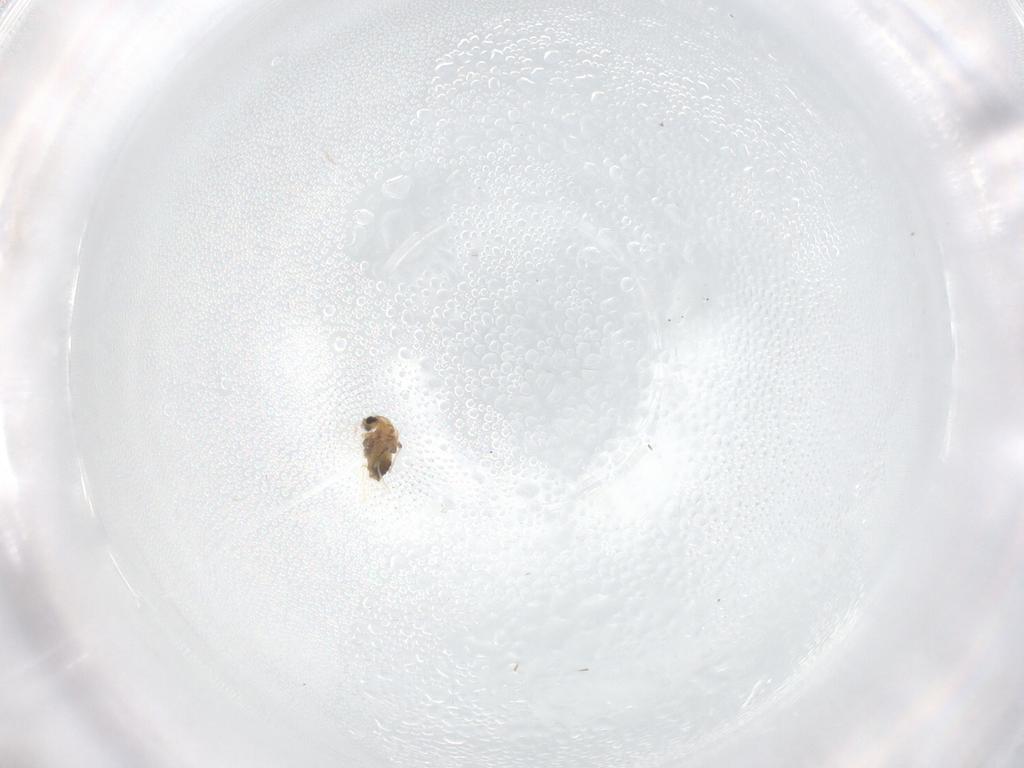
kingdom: Animalia
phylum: Arthropoda
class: Insecta
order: Diptera
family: Chironomidae
